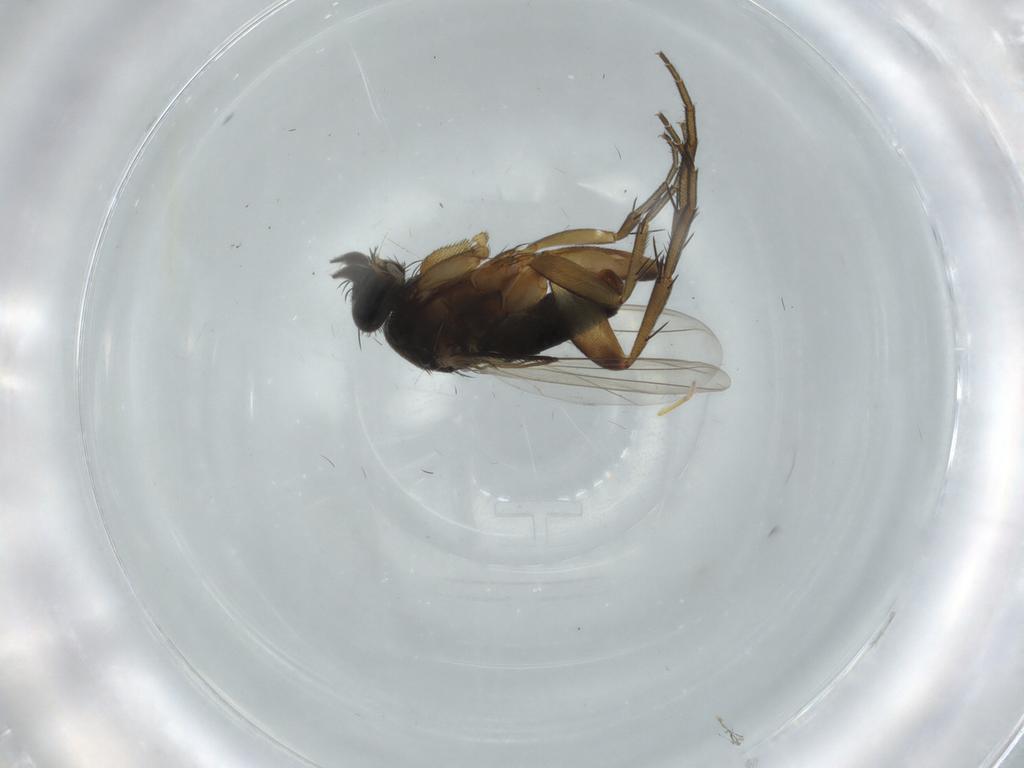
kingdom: Animalia
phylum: Arthropoda
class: Insecta
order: Diptera
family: Phoridae
